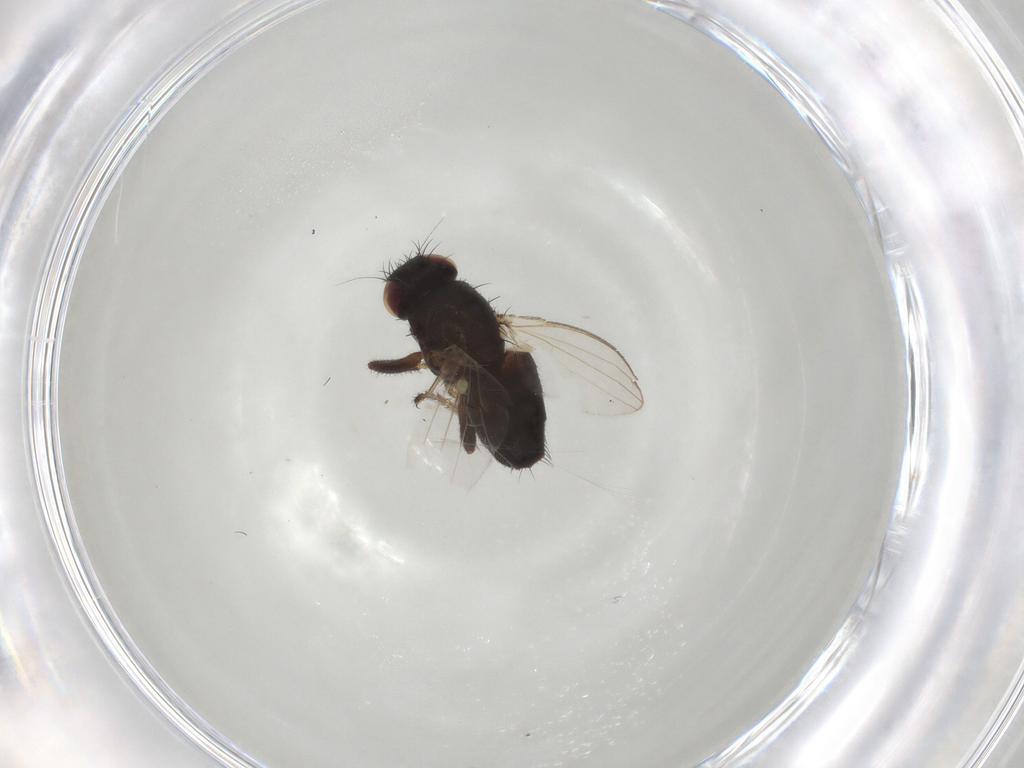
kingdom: Animalia
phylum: Arthropoda
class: Insecta
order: Diptera
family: Milichiidae
